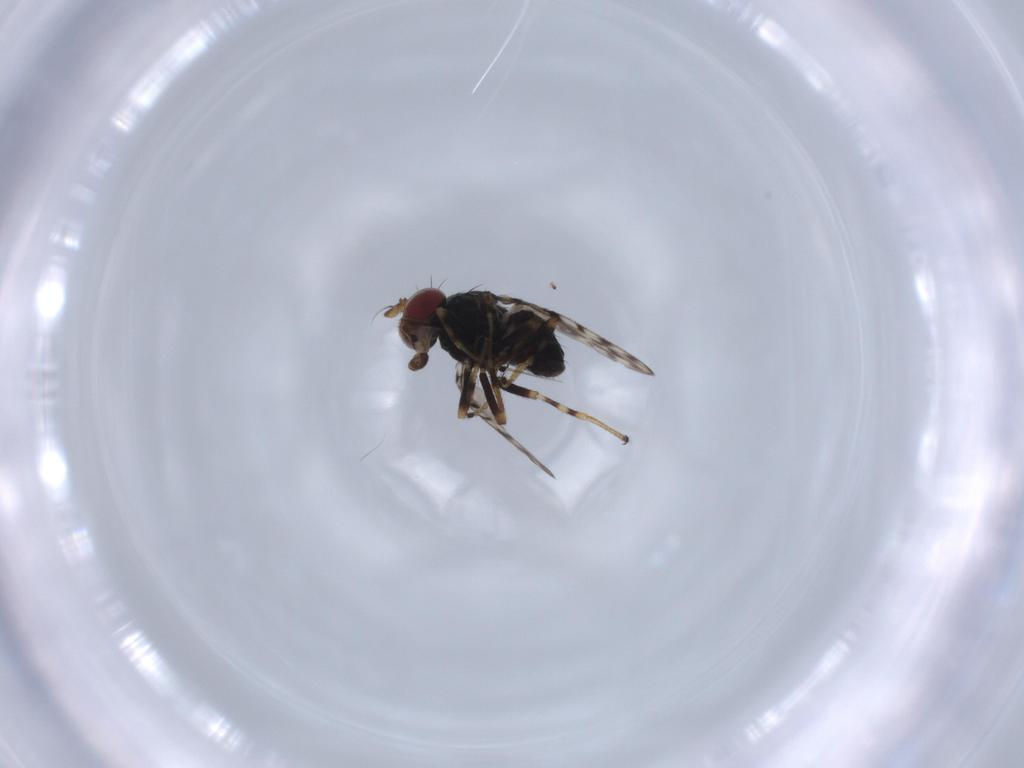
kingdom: Animalia
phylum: Arthropoda
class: Insecta
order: Diptera
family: Ephydridae
